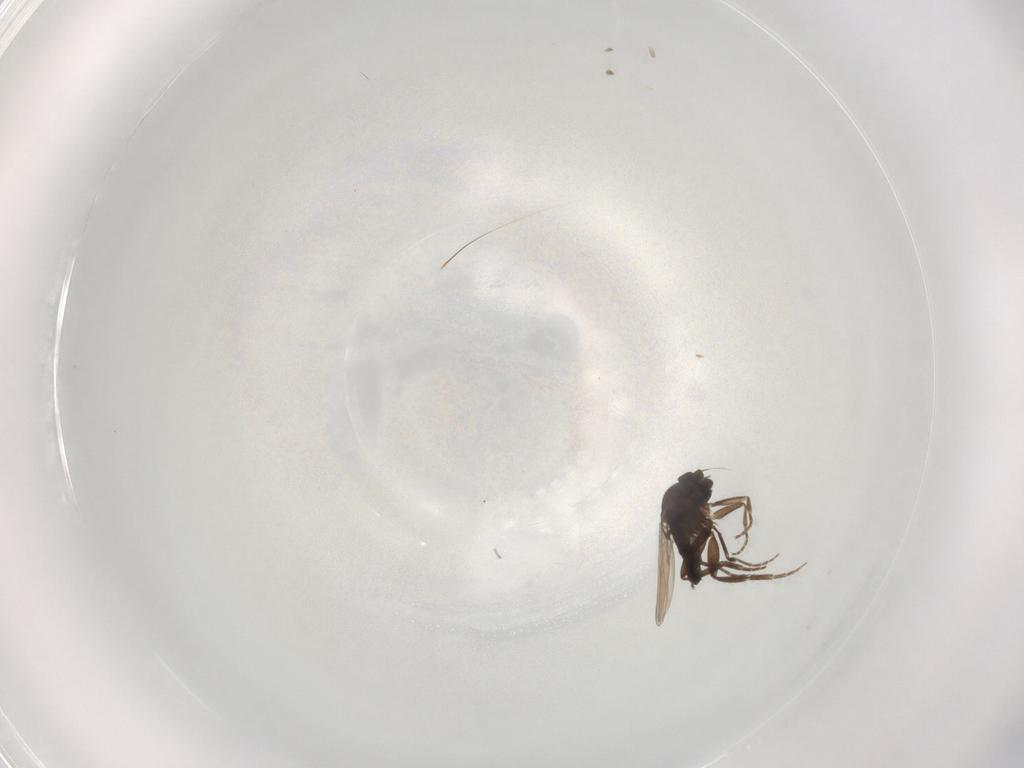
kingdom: Animalia
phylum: Arthropoda
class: Insecta
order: Diptera
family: Phoridae
